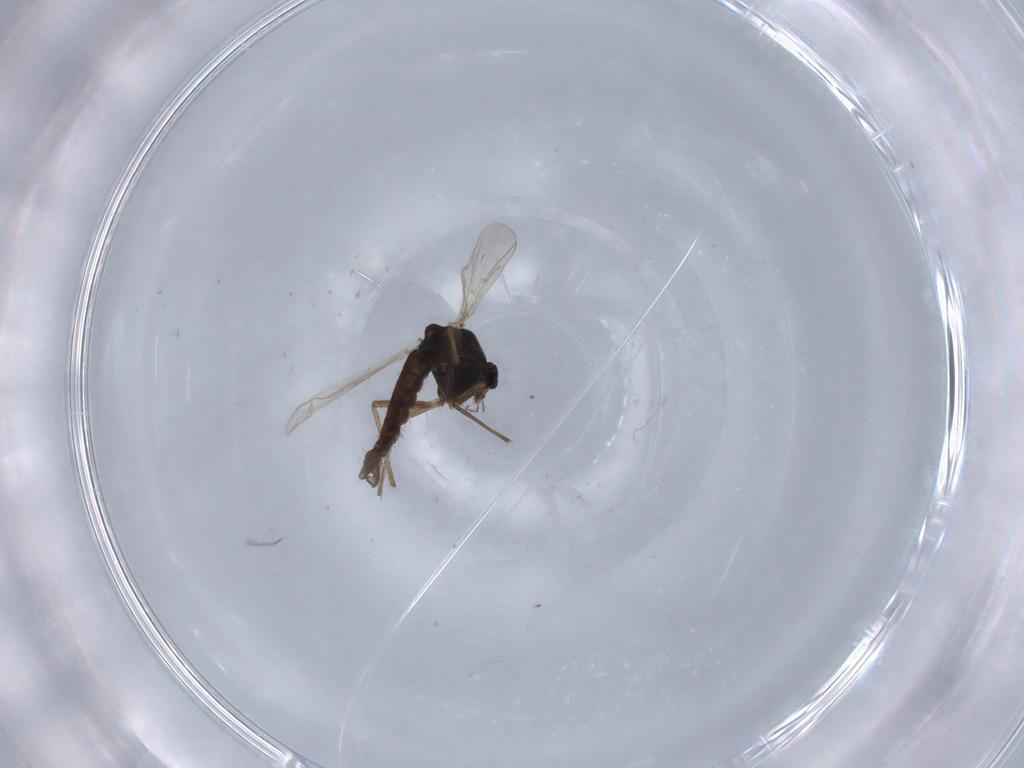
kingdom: Animalia
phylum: Arthropoda
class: Insecta
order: Diptera
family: Chironomidae
